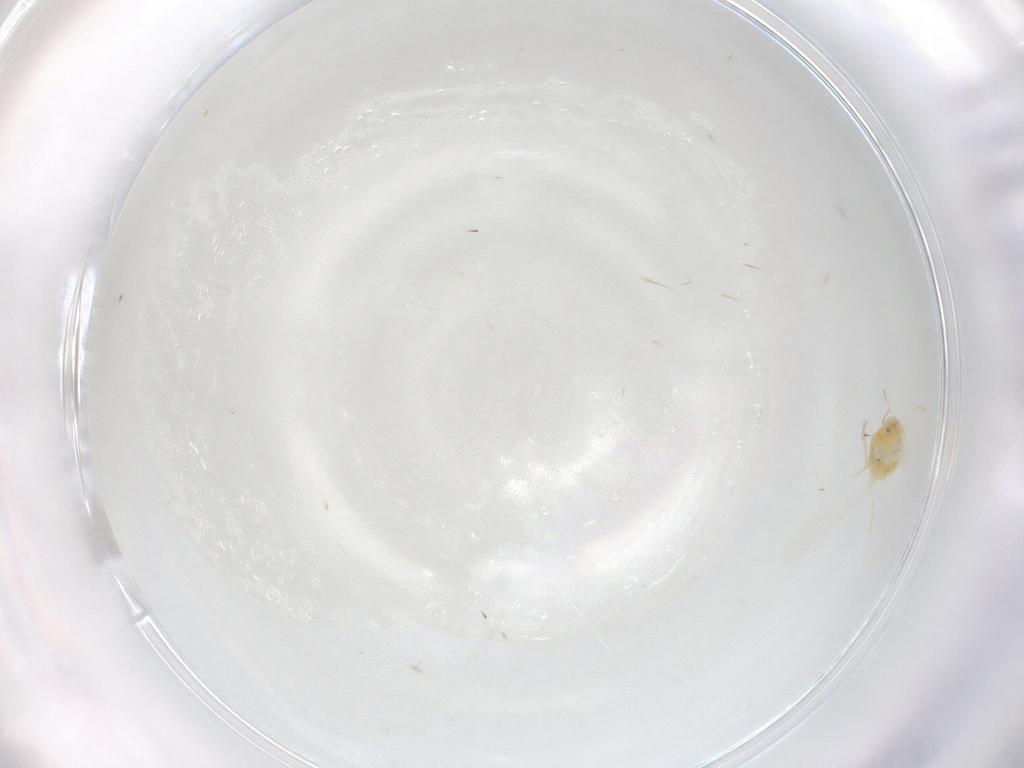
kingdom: Animalia
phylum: Arthropoda
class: Insecta
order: Hemiptera
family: Aleyrodidae
